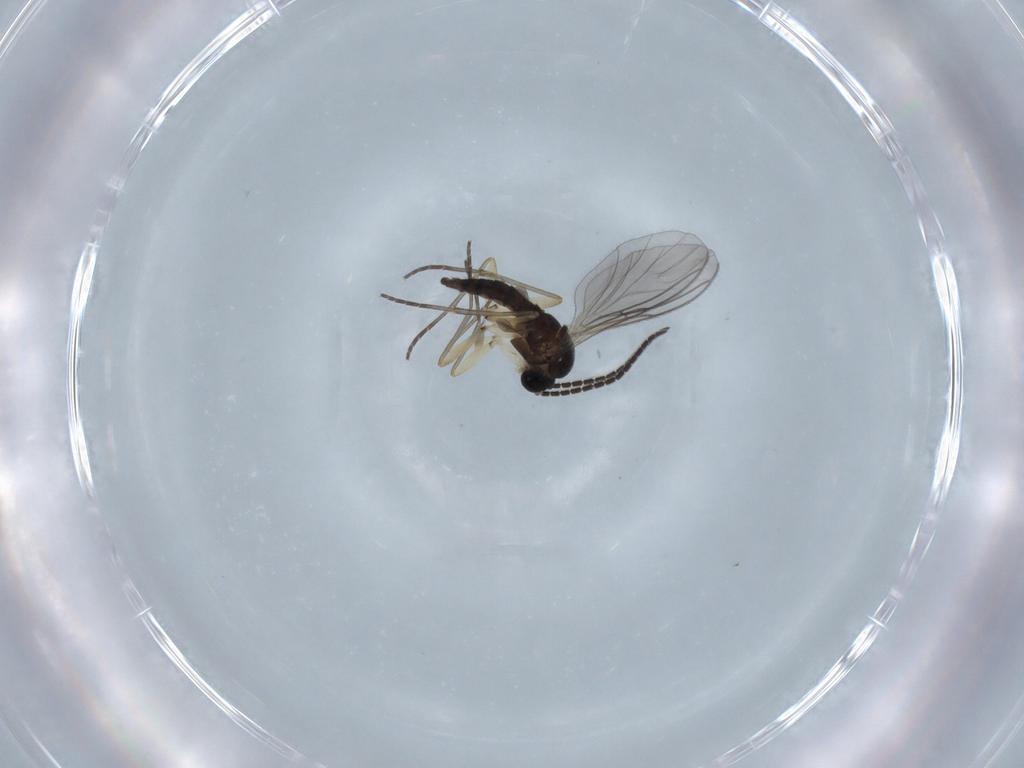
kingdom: Animalia
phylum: Arthropoda
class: Insecta
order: Diptera
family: Sciaridae
